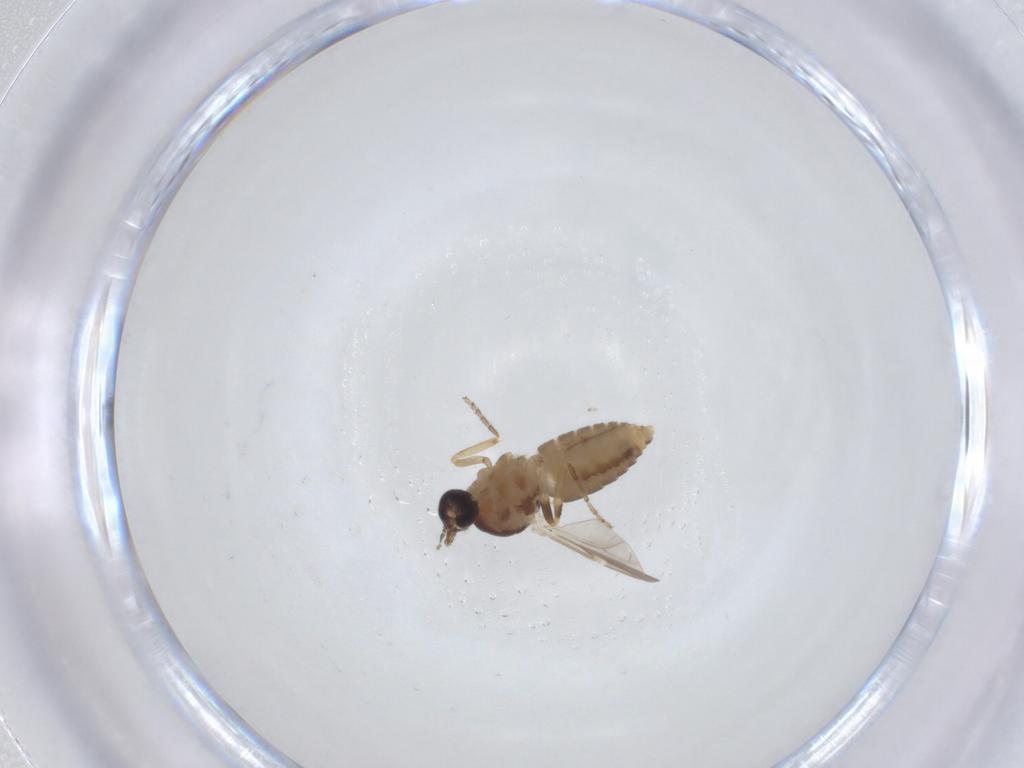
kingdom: Animalia
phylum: Arthropoda
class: Insecta
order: Diptera
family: Ceratopogonidae
